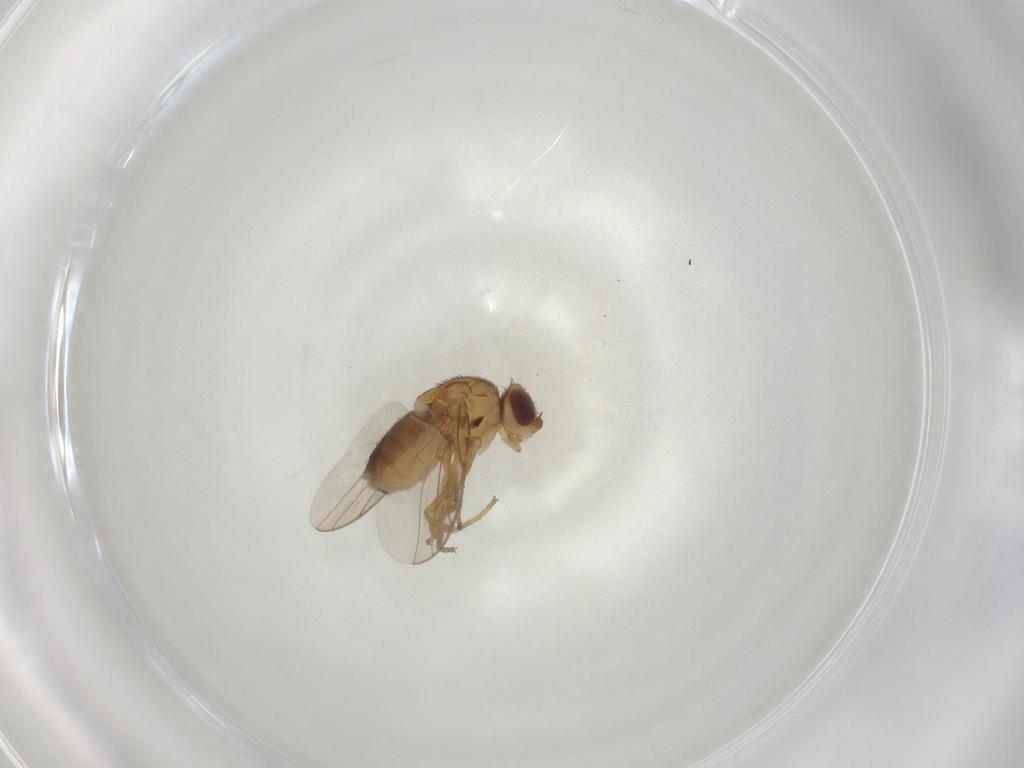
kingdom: Animalia
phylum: Arthropoda
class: Insecta
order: Diptera
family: Chloropidae
